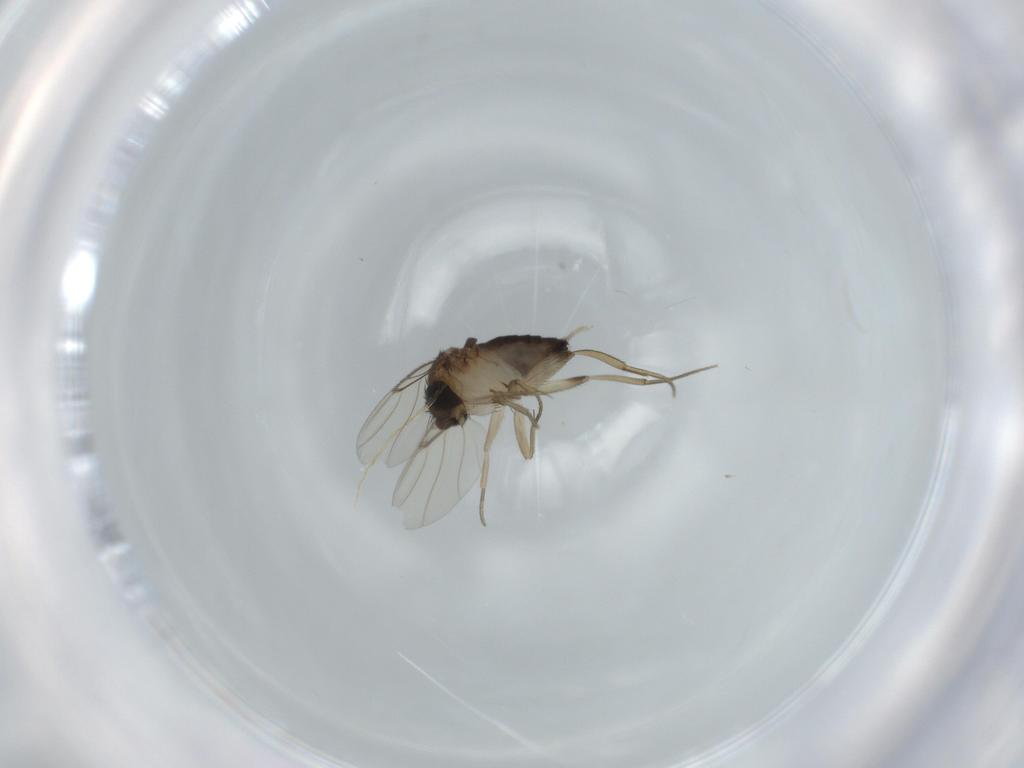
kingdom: Animalia
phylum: Arthropoda
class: Insecta
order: Diptera
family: Phoridae
